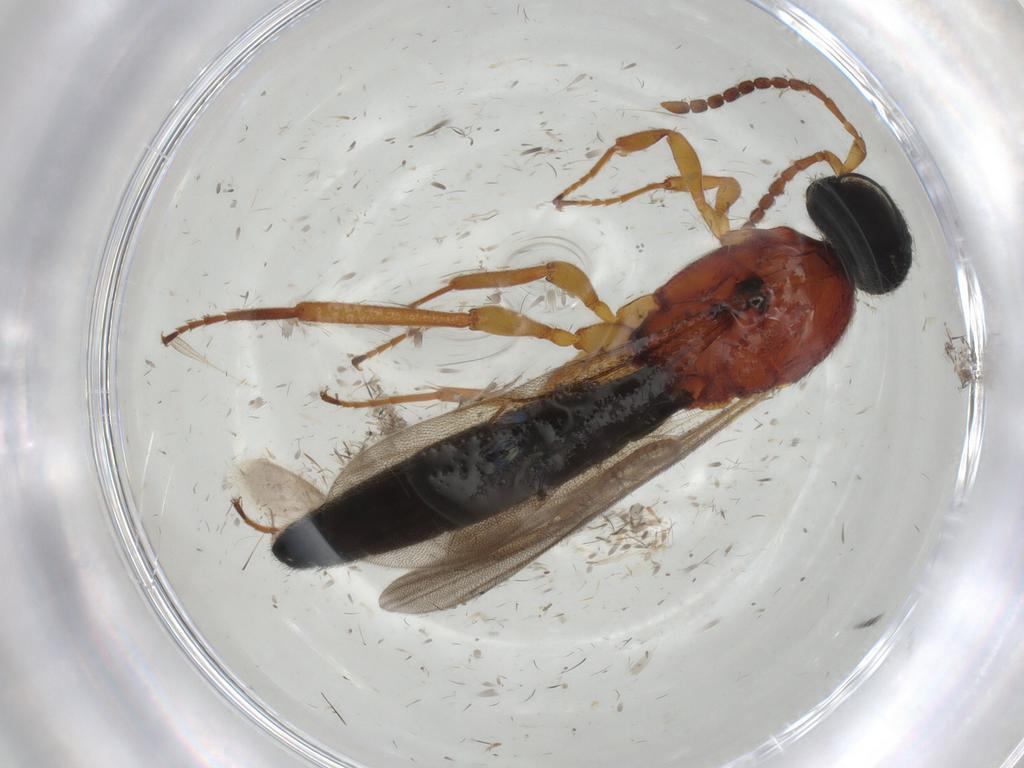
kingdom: Animalia
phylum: Arthropoda
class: Insecta
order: Hymenoptera
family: Scelionidae
